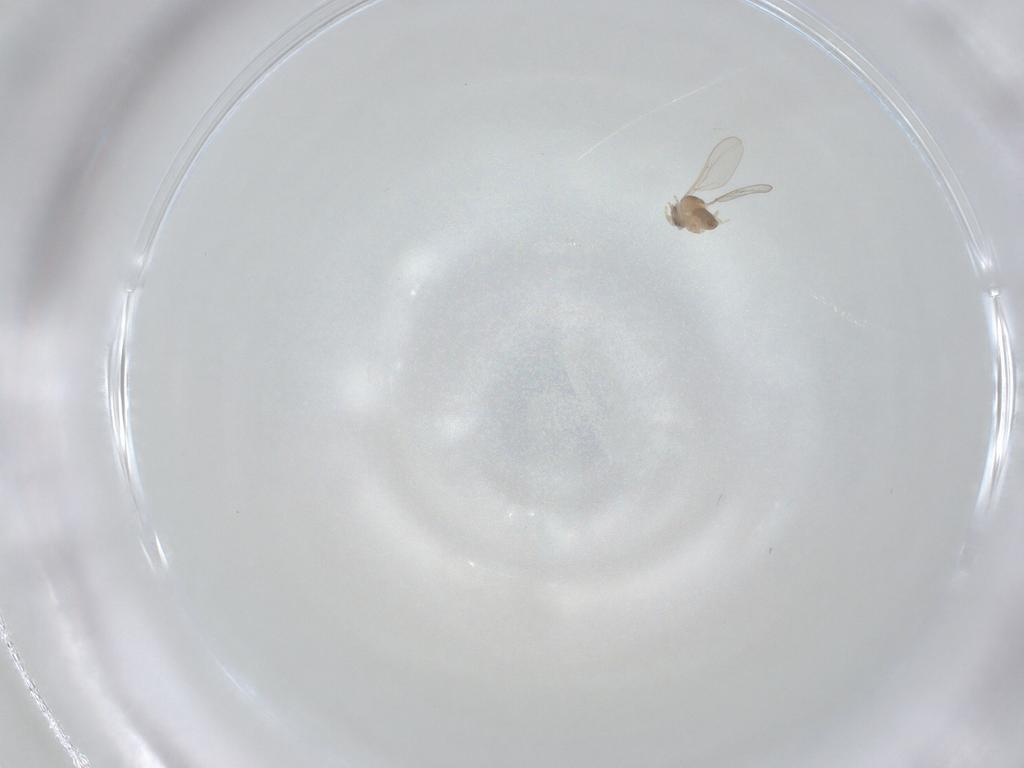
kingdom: Animalia
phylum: Arthropoda
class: Insecta
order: Diptera
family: Cecidomyiidae
